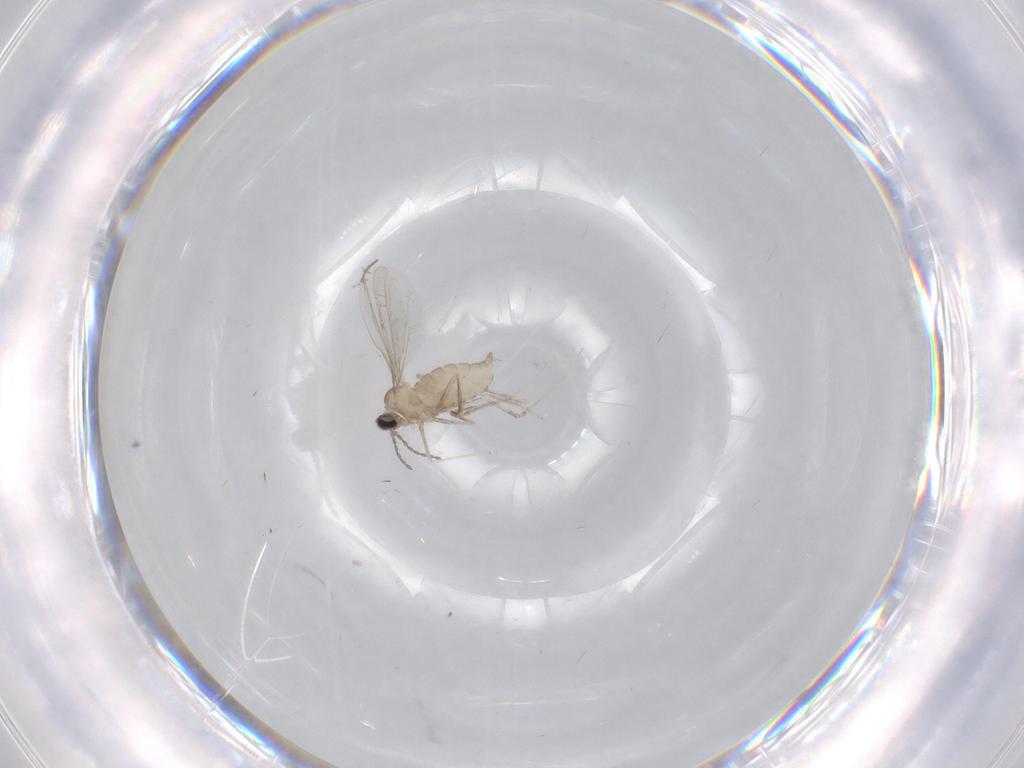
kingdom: Animalia
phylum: Arthropoda
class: Insecta
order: Diptera
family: Cecidomyiidae
